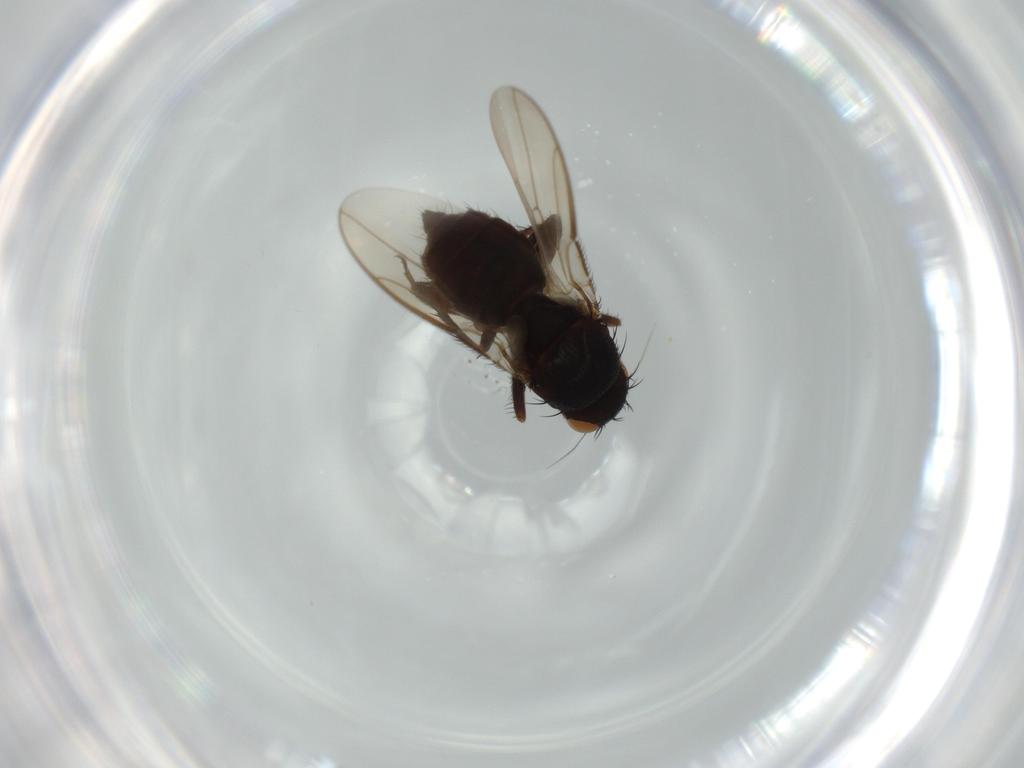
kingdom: Animalia
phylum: Arthropoda
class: Insecta
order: Diptera
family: Sphaeroceridae
